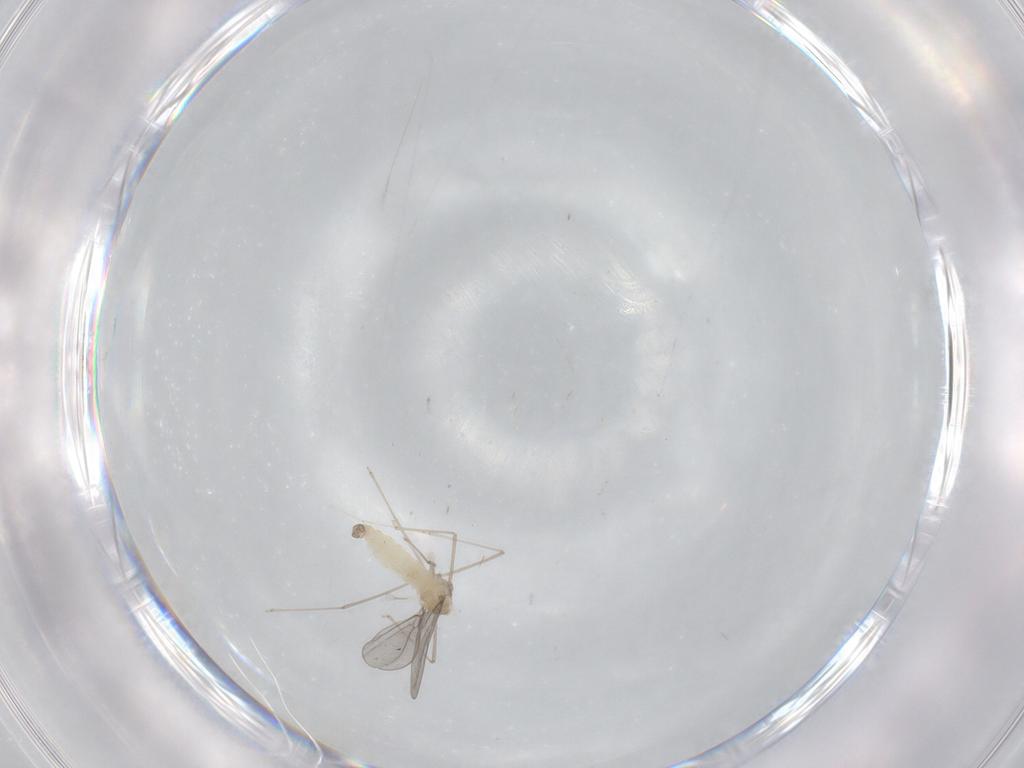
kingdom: Animalia
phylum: Arthropoda
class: Insecta
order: Diptera
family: Cecidomyiidae
